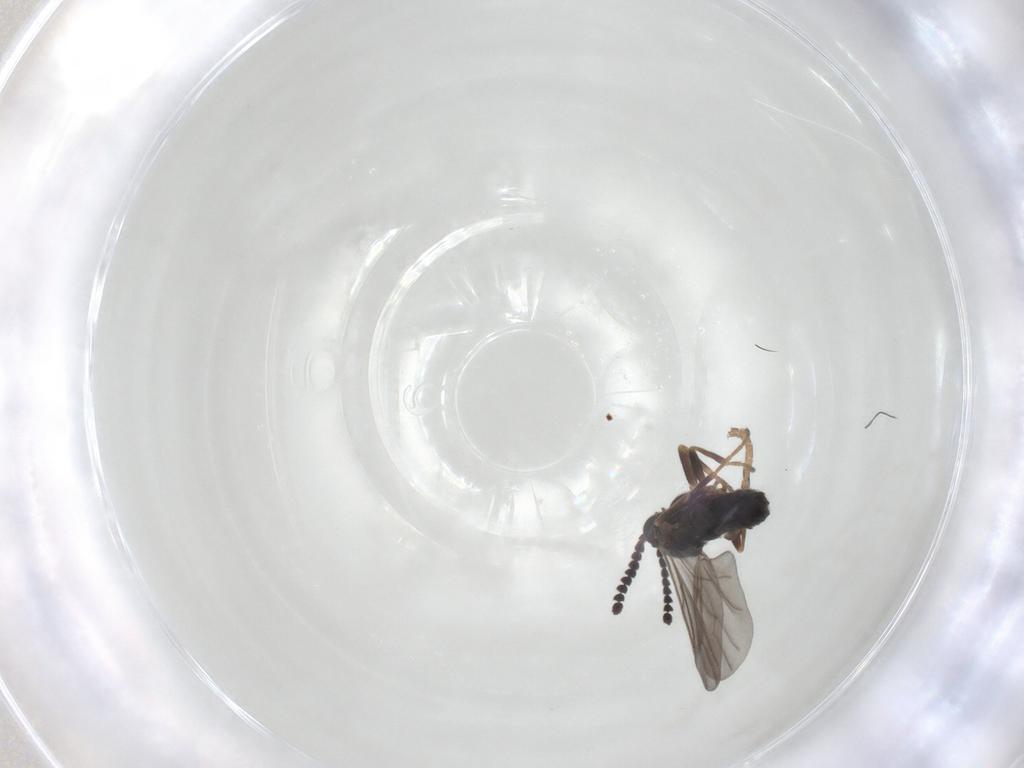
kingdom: Animalia
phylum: Arthropoda
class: Insecta
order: Diptera
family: Scatopsidae
